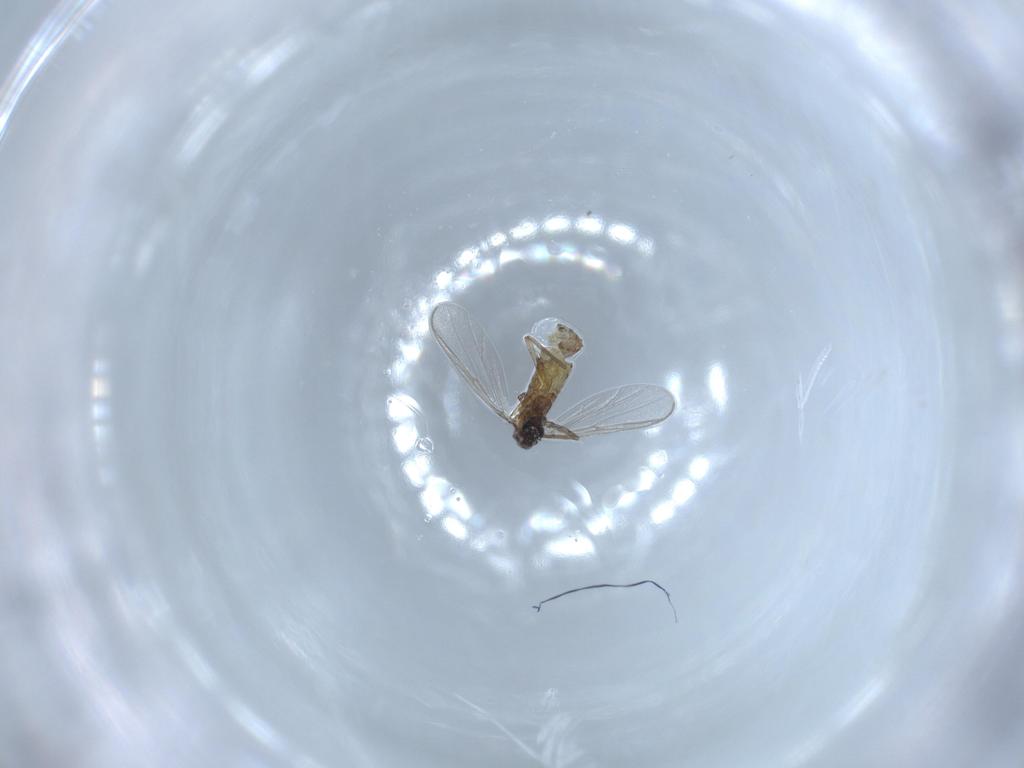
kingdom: Animalia
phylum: Arthropoda
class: Insecta
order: Diptera
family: Chironomidae
